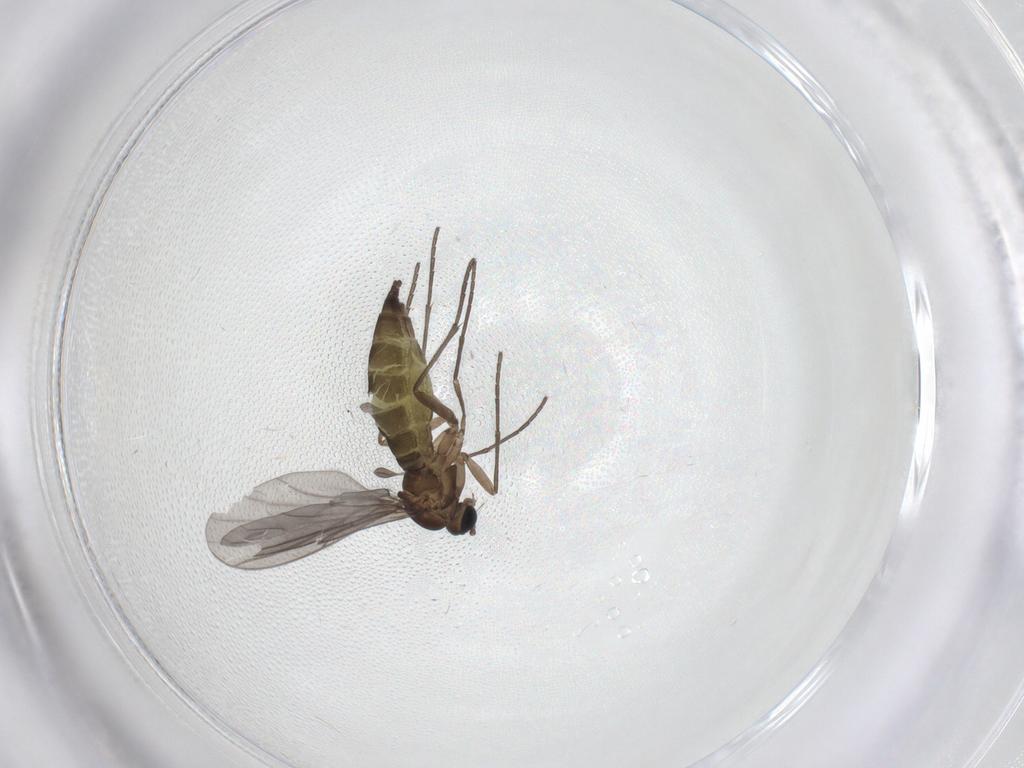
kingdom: Animalia
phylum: Arthropoda
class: Insecta
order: Diptera
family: Sciaridae
